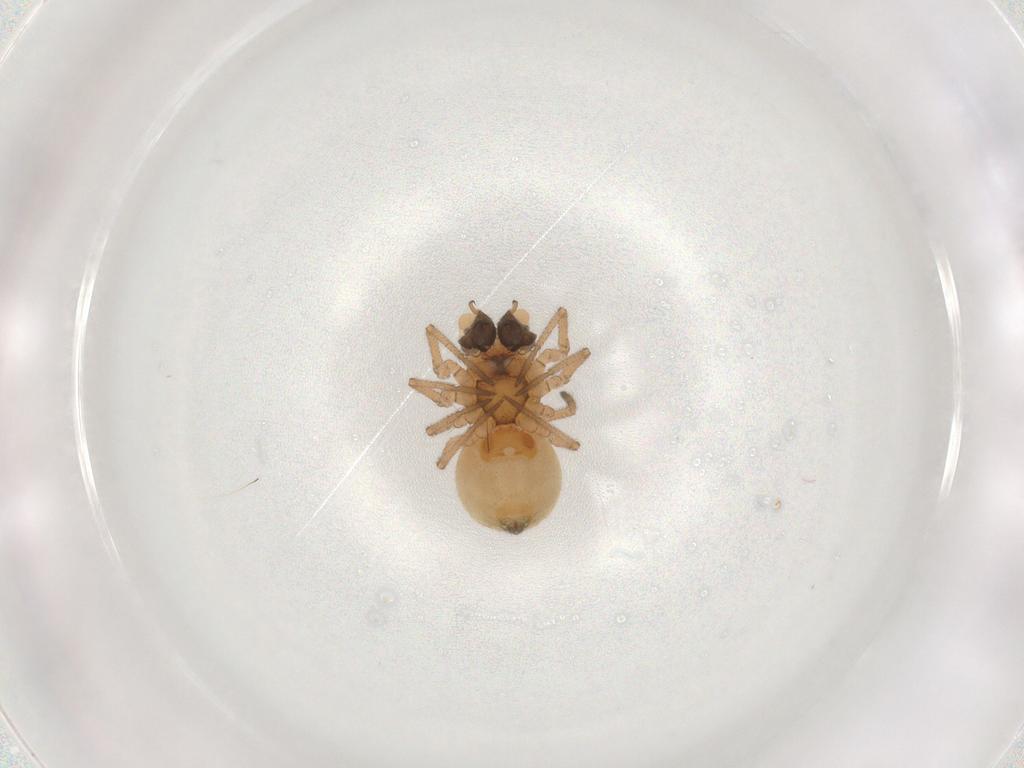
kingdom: Animalia
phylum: Arthropoda
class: Arachnida
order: Araneae
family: Linyphiidae
